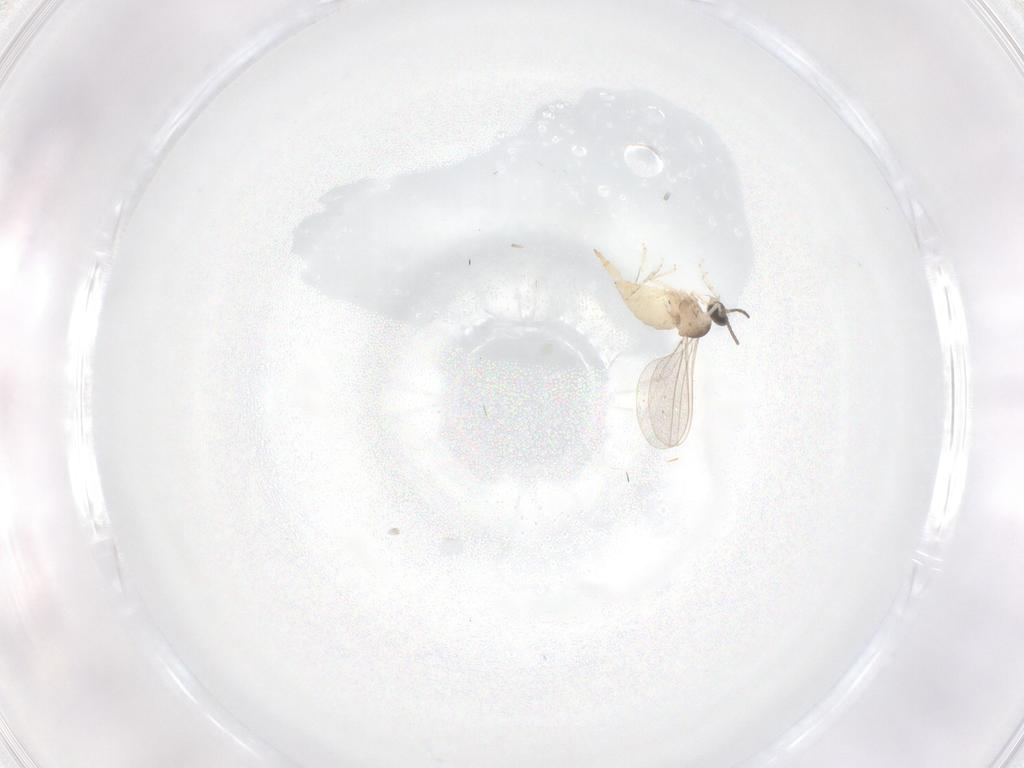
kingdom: Animalia
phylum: Arthropoda
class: Insecta
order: Diptera
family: Cecidomyiidae
